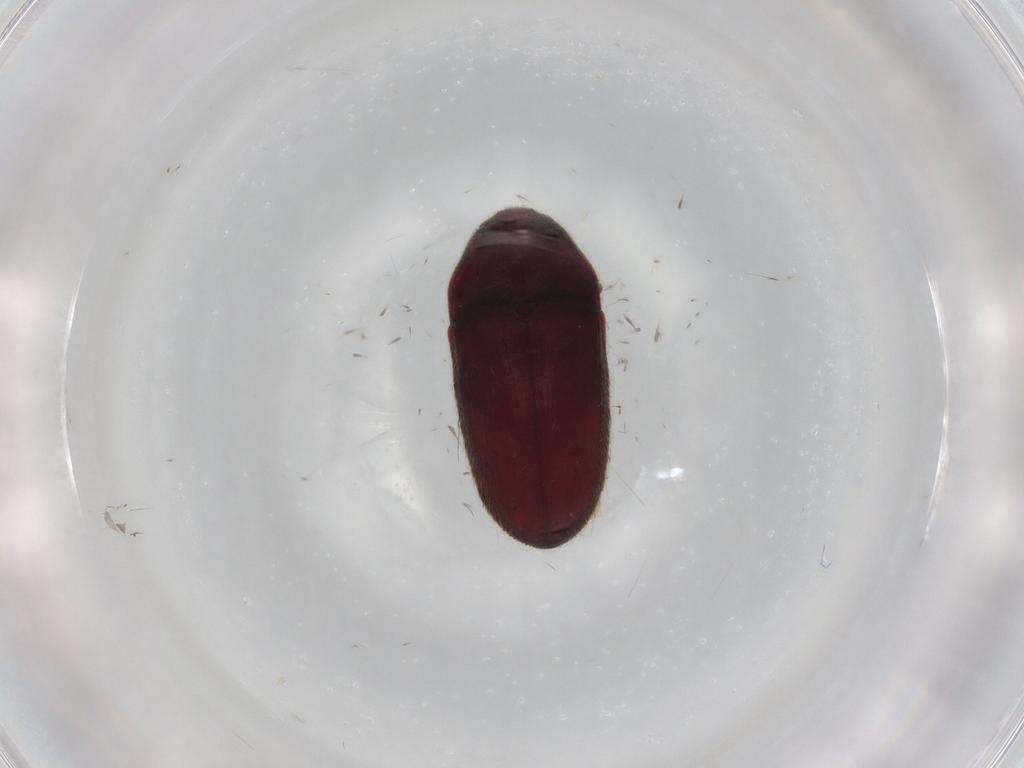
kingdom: Animalia
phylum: Arthropoda
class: Insecta
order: Coleoptera
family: Throscidae
